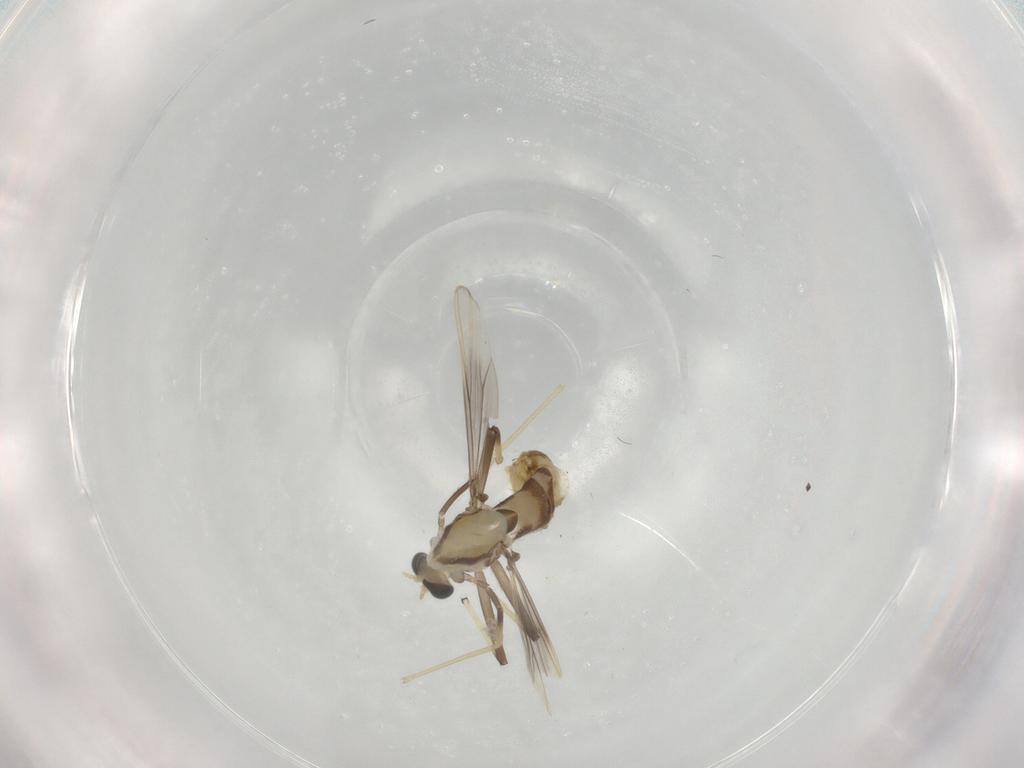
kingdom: Animalia
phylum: Arthropoda
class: Insecta
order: Diptera
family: Chironomidae
